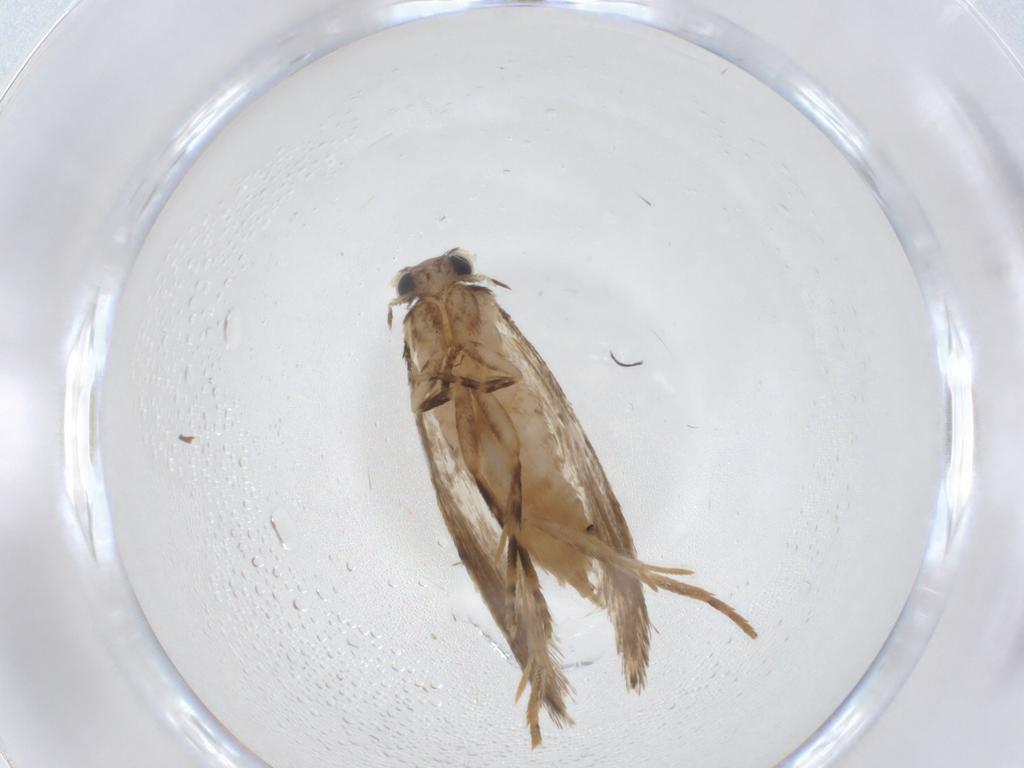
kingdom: Animalia
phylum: Arthropoda
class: Insecta
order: Lepidoptera
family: Tineidae
